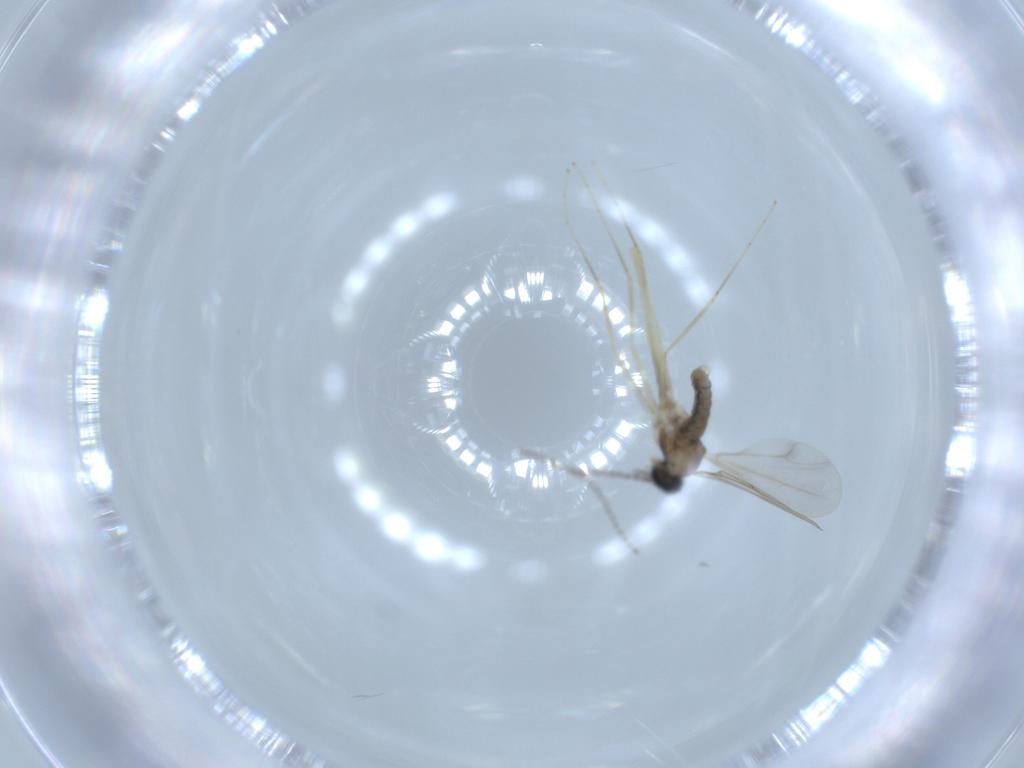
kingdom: Animalia
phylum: Arthropoda
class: Insecta
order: Diptera
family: Cecidomyiidae
